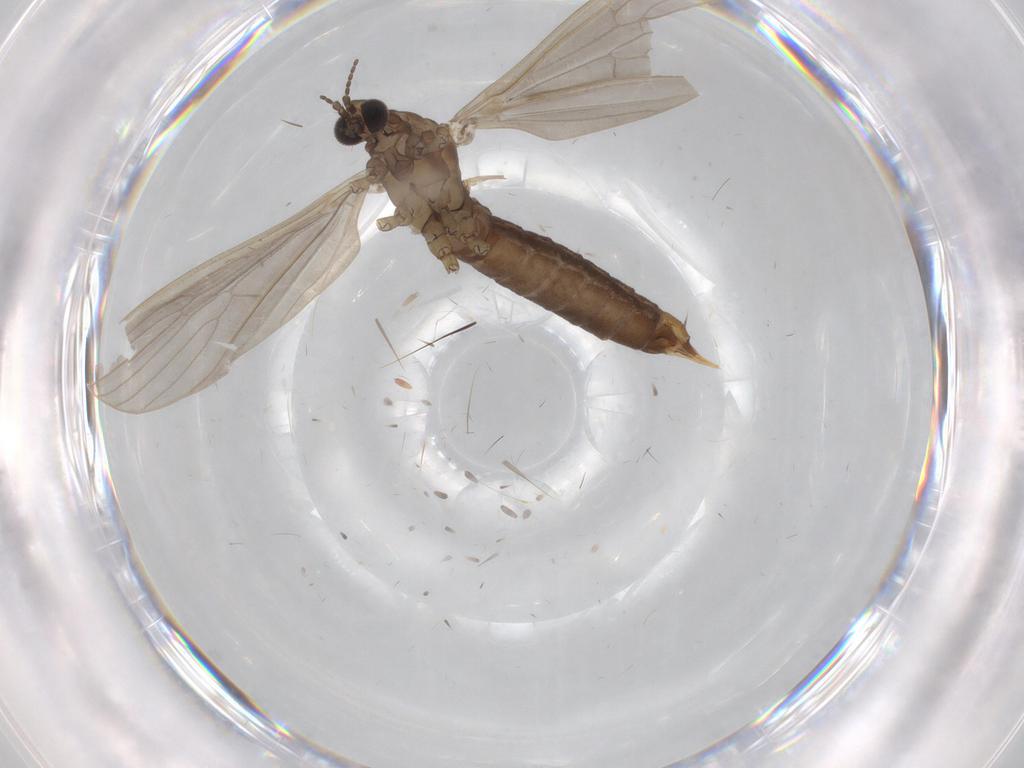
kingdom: Animalia
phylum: Arthropoda
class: Insecta
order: Diptera
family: Limoniidae
